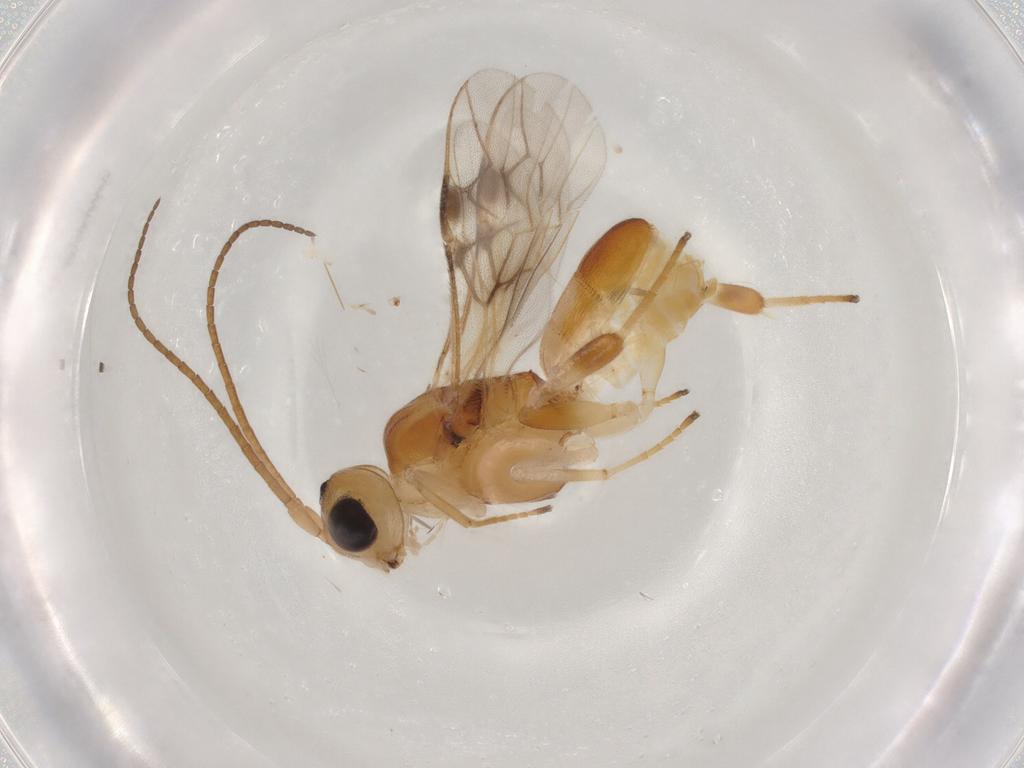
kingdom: Animalia
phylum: Arthropoda
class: Insecta
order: Hymenoptera
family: Braconidae
